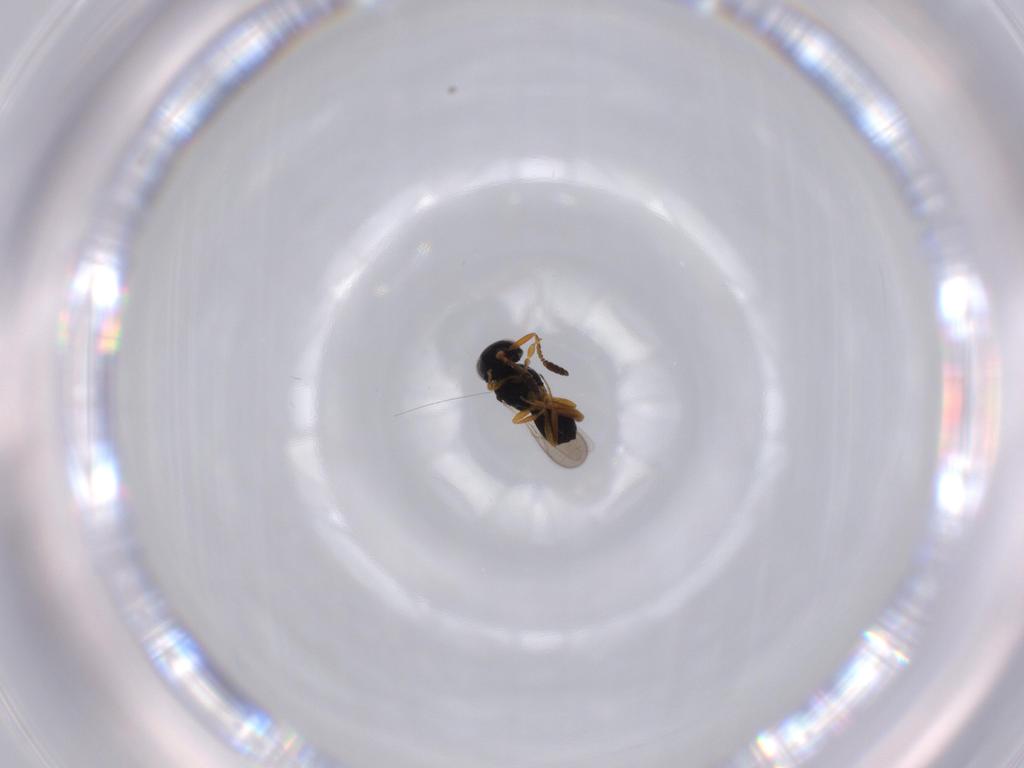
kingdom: Animalia
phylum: Arthropoda
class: Insecta
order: Hymenoptera
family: Scelionidae
